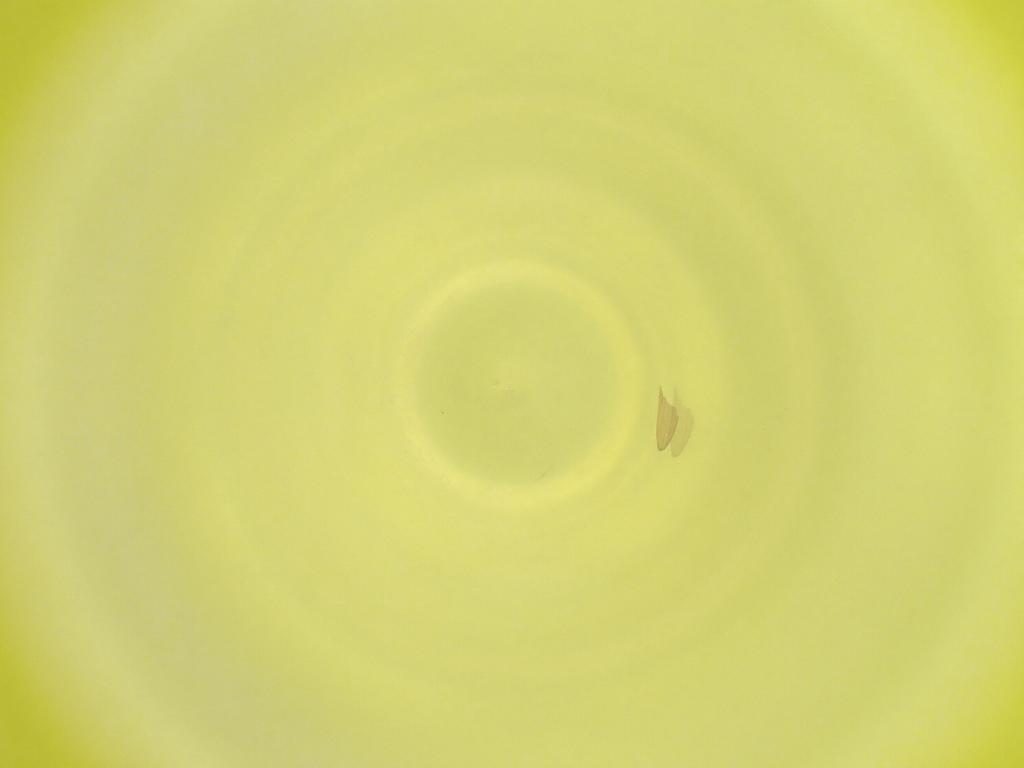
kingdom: Animalia
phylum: Arthropoda
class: Insecta
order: Diptera
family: Cecidomyiidae
